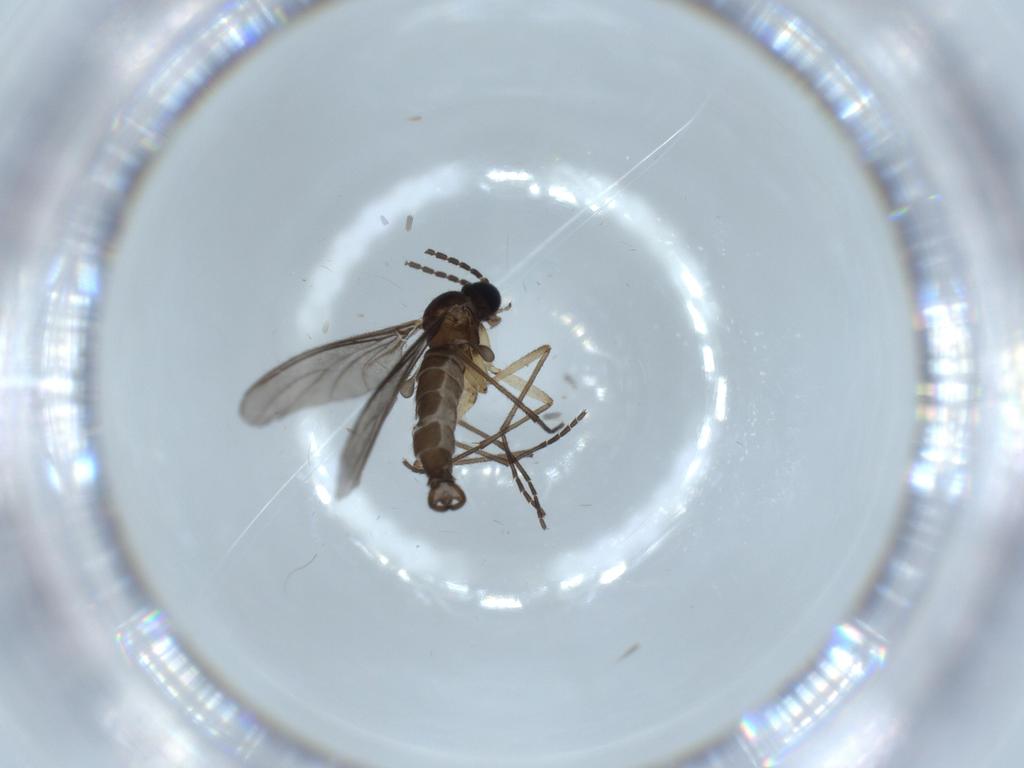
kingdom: Animalia
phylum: Arthropoda
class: Insecta
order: Diptera
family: Sciaridae
